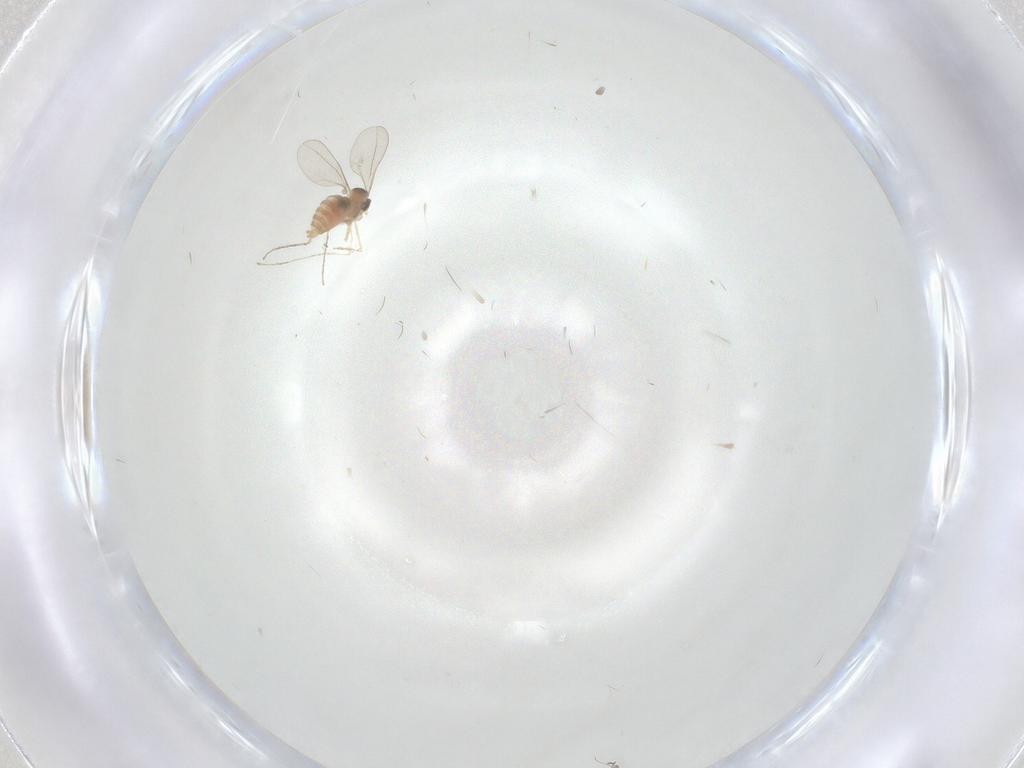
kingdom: Animalia
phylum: Arthropoda
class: Insecta
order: Diptera
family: Cecidomyiidae
